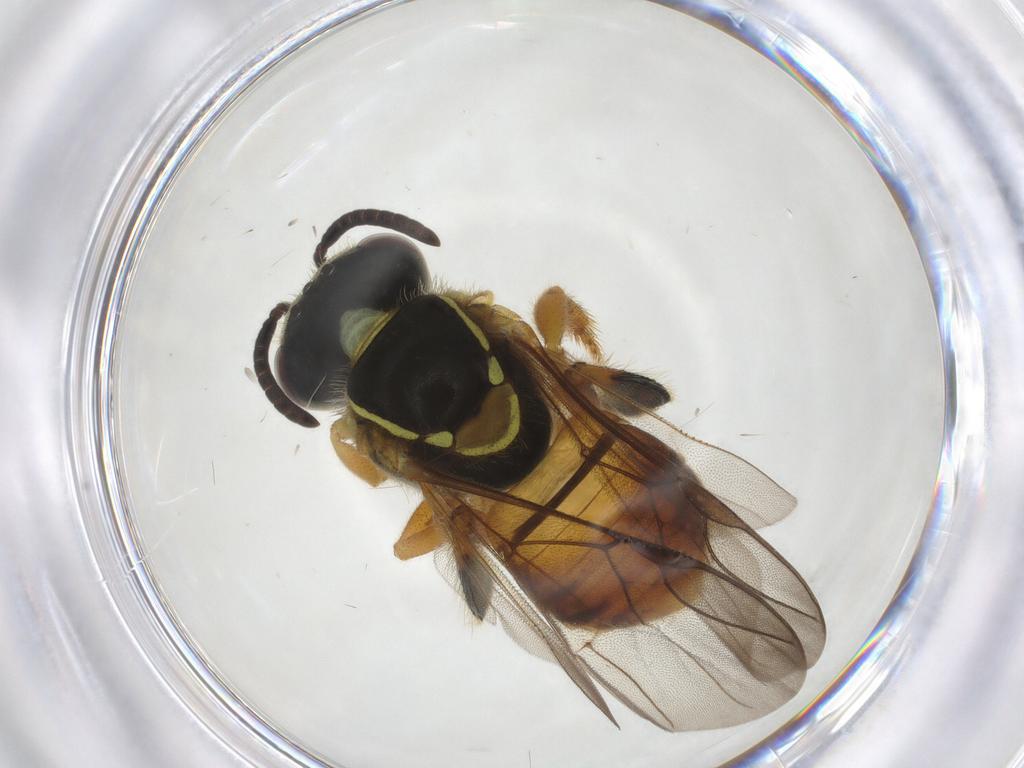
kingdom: Animalia
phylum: Arthropoda
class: Insecta
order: Hymenoptera
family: Apidae
